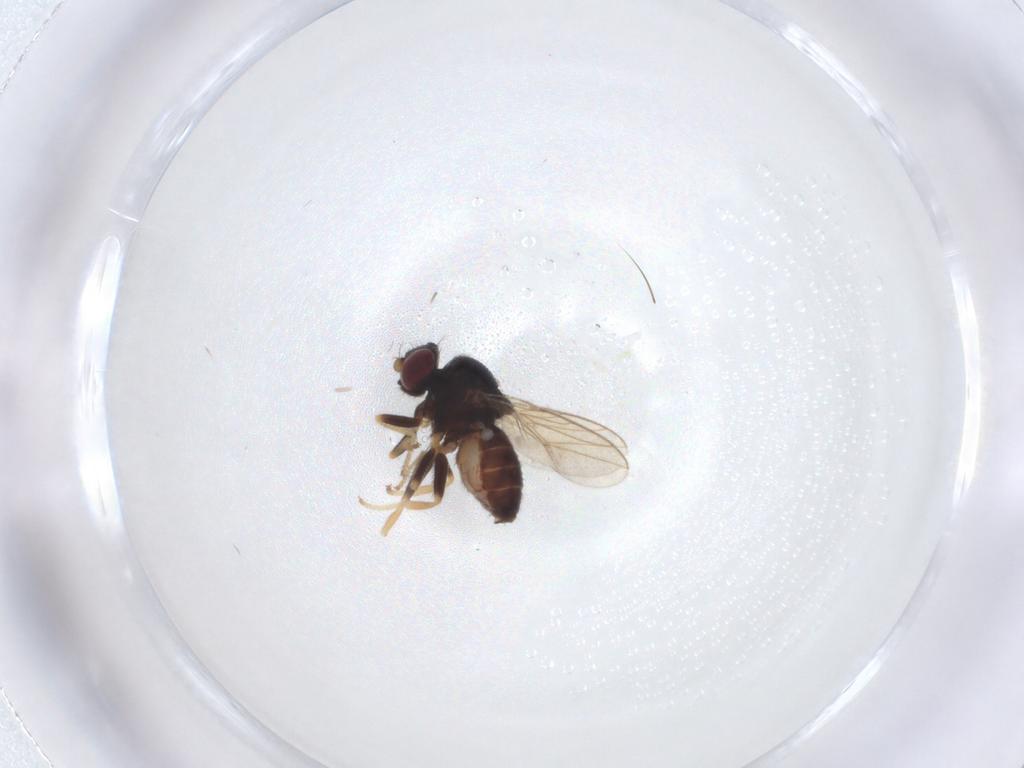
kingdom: Animalia
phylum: Arthropoda
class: Insecta
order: Diptera
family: Chloropidae
